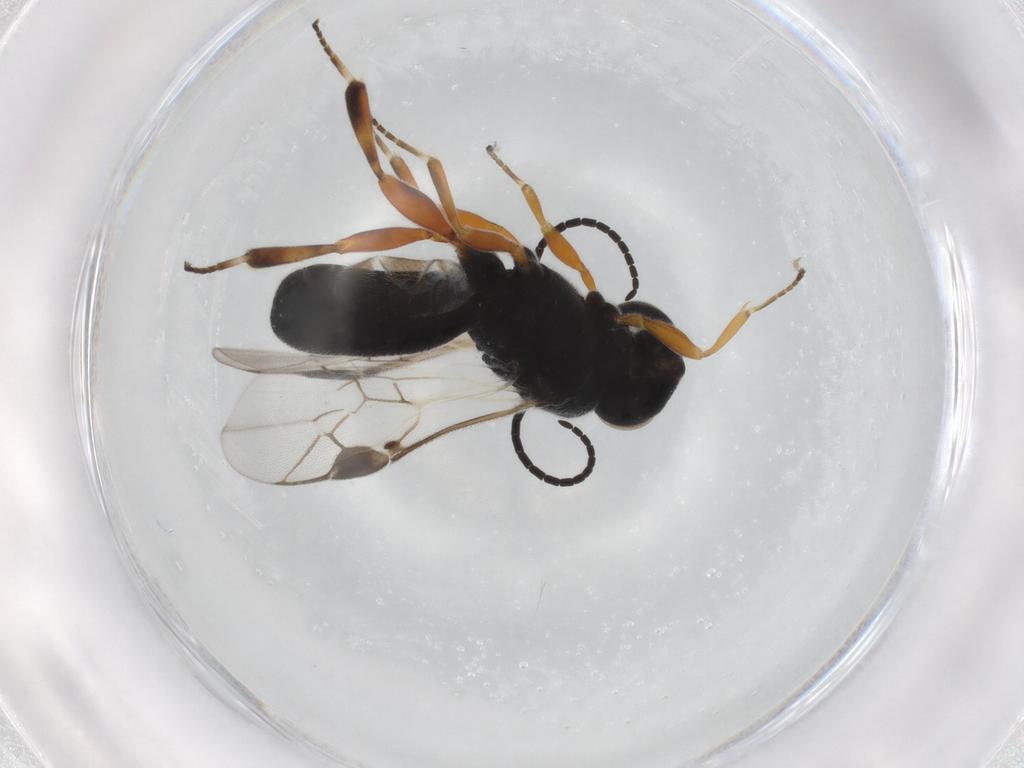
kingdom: Animalia
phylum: Arthropoda
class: Insecta
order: Hymenoptera
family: Braconidae
